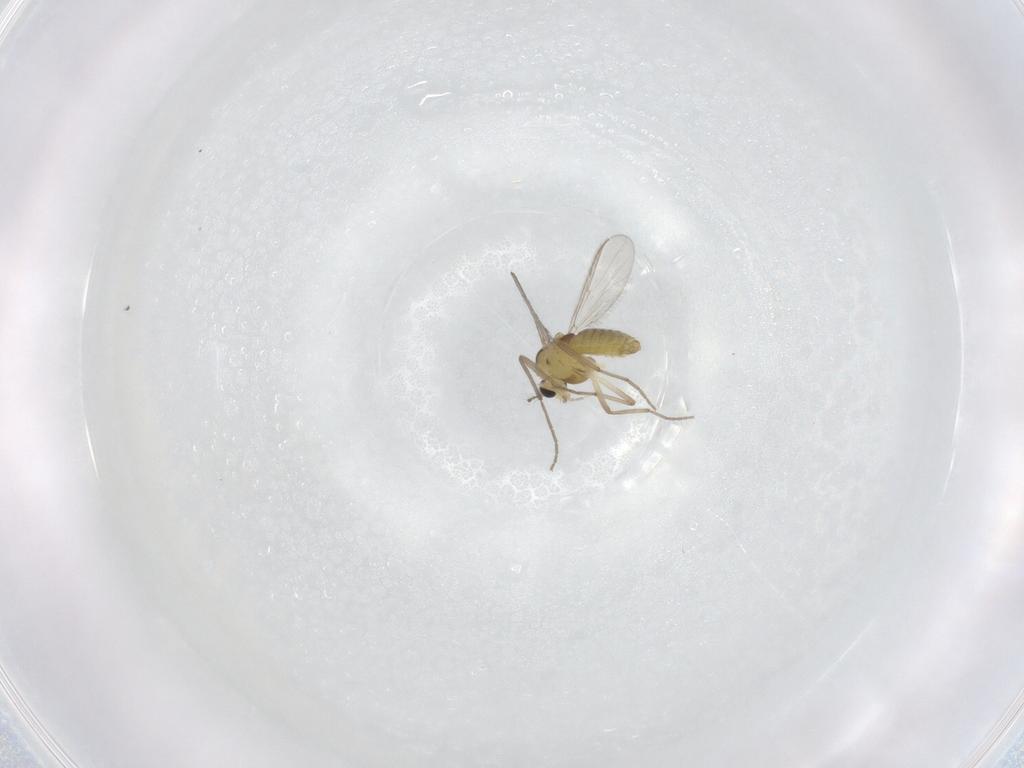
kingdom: Animalia
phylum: Arthropoda
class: Insecta
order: Diptera
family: Chironomidae
